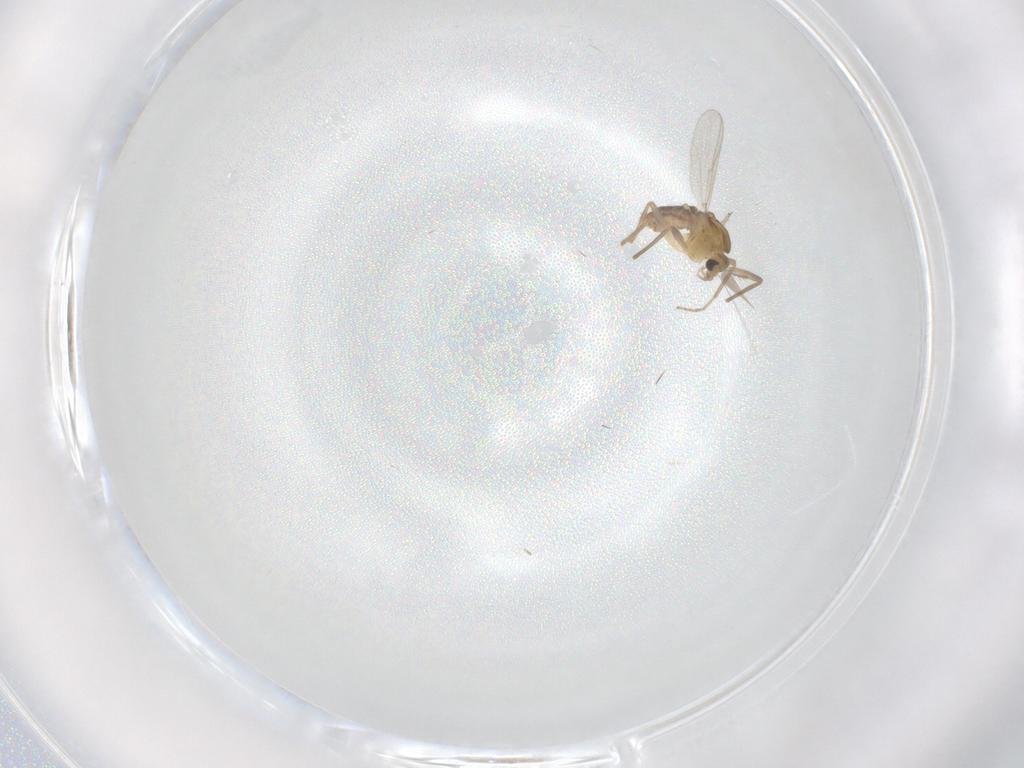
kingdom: Animalia
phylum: Arthropoda
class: Insecta
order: Diptera
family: Chironomidae
